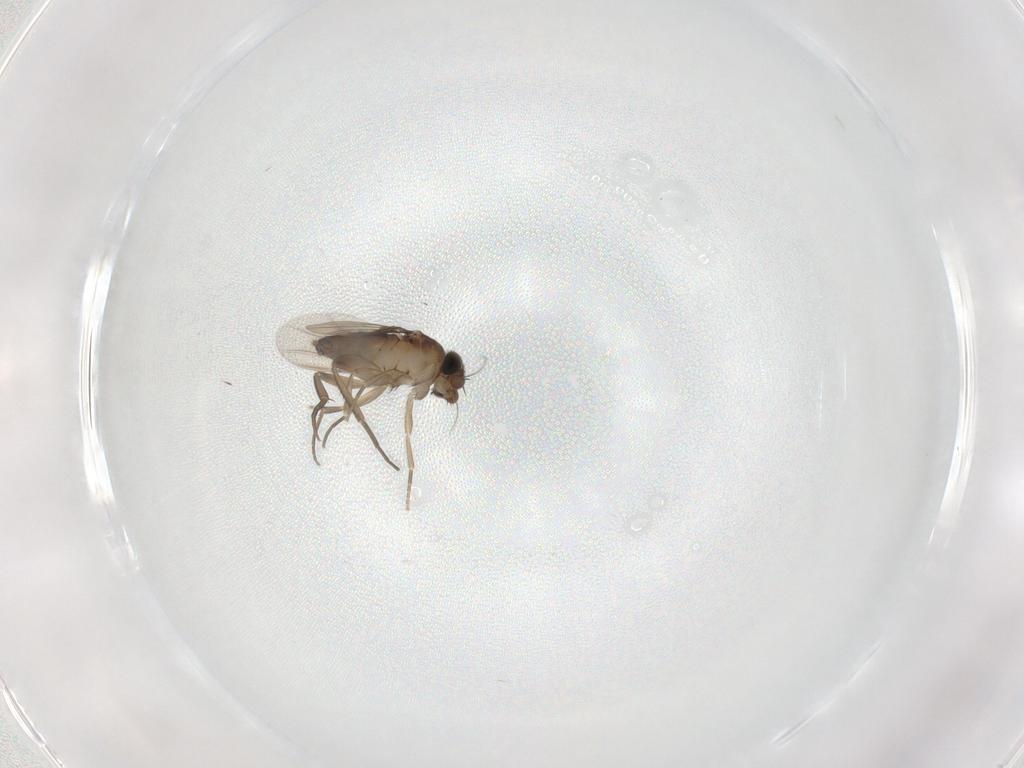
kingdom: Animalia
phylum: Arthropoda
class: Insecta
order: Diptera
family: Phoridae
